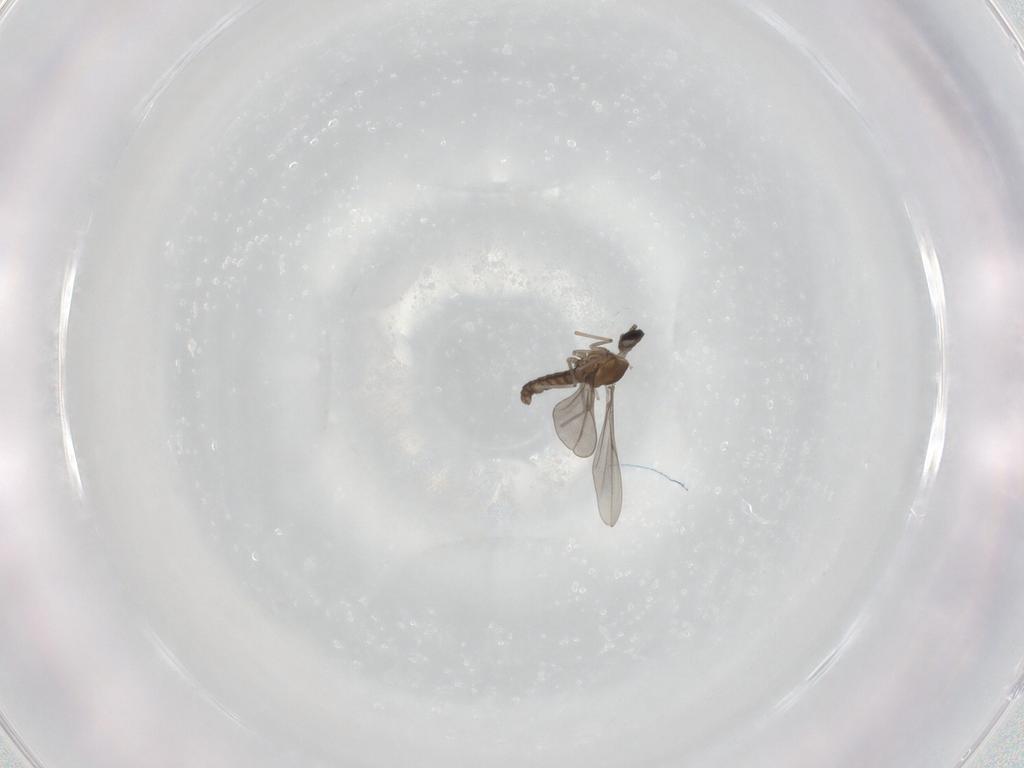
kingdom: Animalia
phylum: Arthropoda
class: Insecta
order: Diptera
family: Cecidomyiidae
